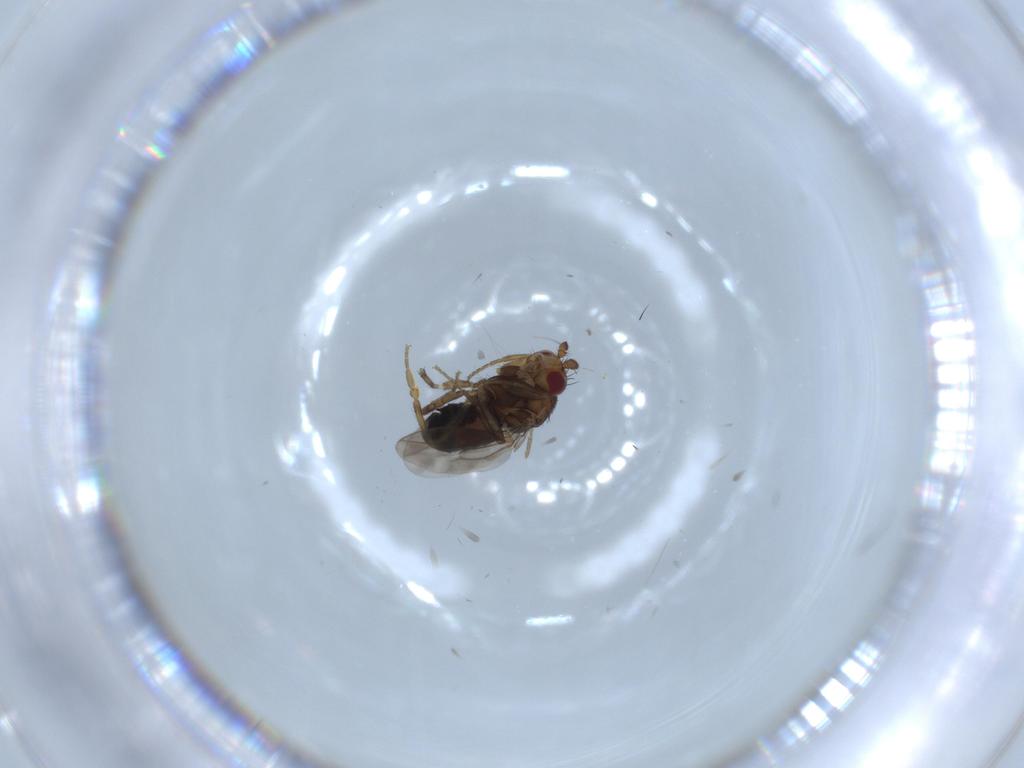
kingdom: Animalia
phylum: Arthropoda
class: Insecta
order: Diptera
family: Sphaeroceridae
